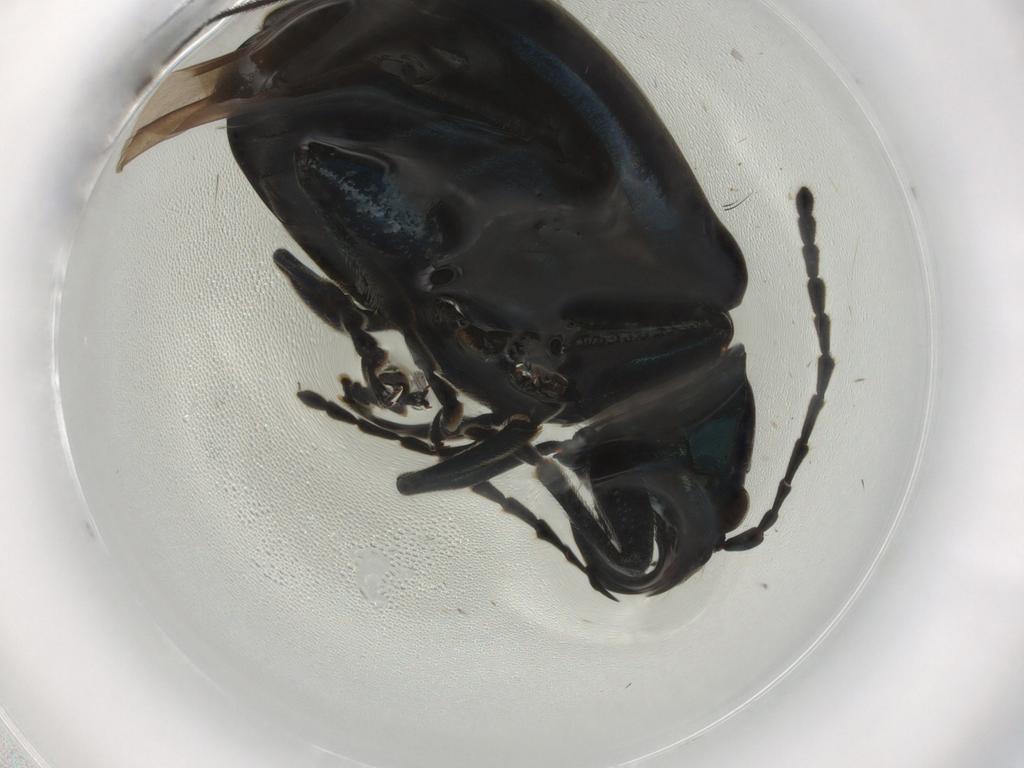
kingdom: Animalia
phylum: Arthropoda
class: Insecta
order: Coleoptera
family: Chrysomelidae
